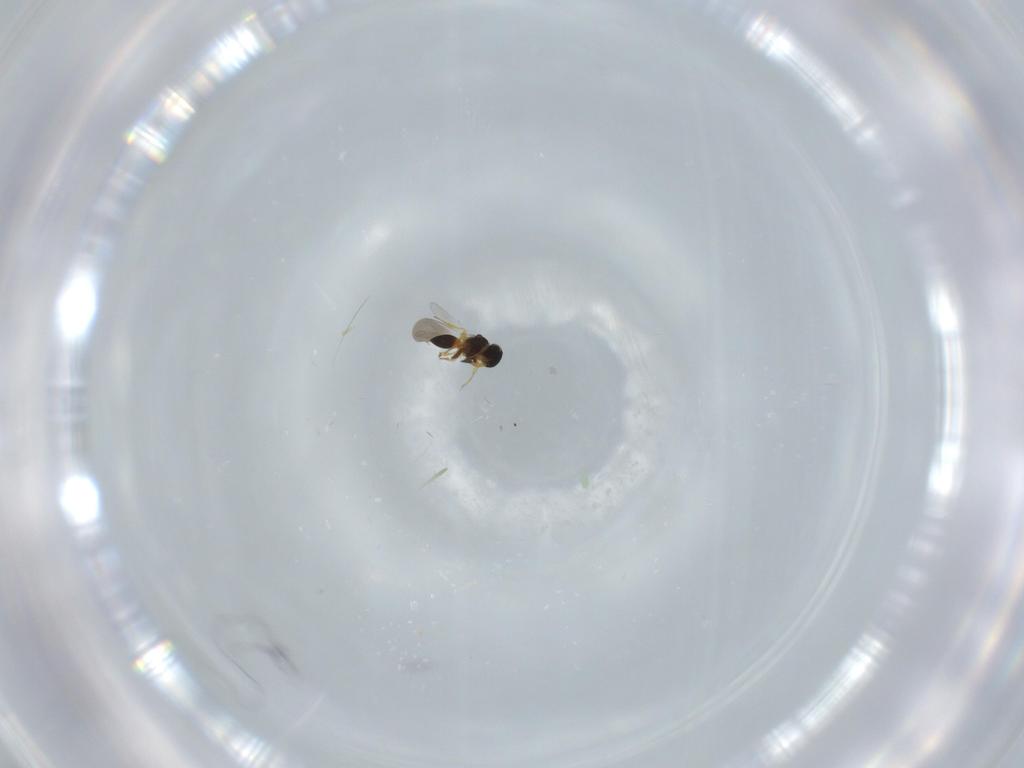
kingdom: Animalia
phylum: Arthropoda
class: Insecta
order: Hymenoptera
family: Platygastridae
